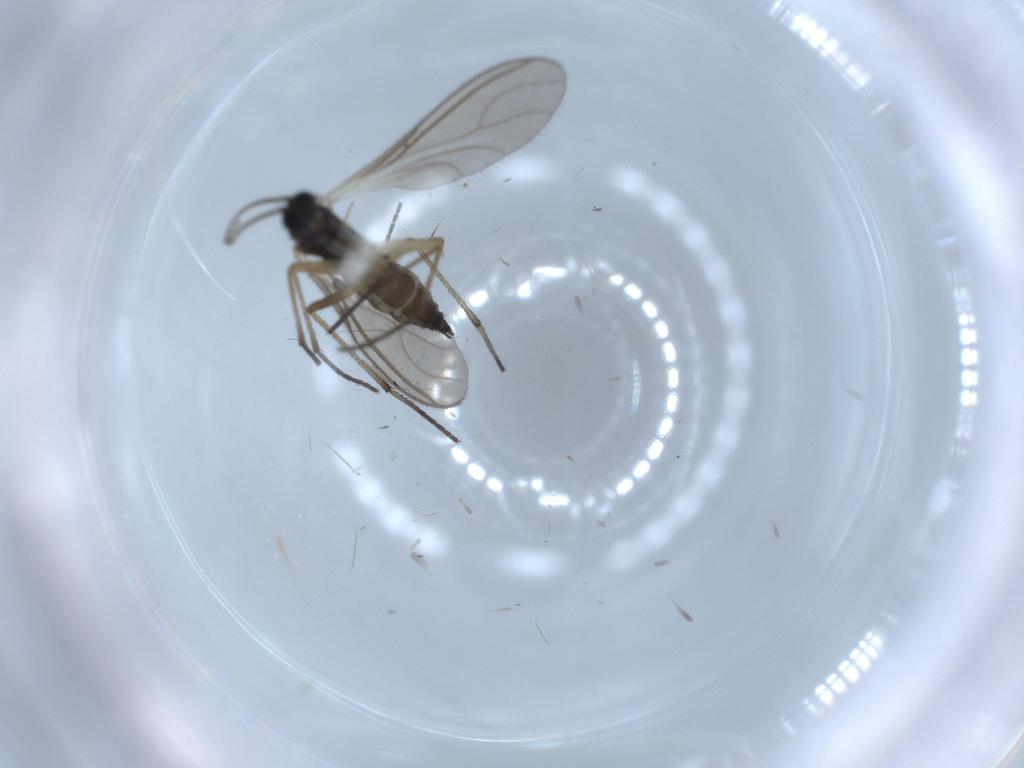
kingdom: Animalia
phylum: Arthropoda
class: Insecta
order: Diptera
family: Sciaridae
